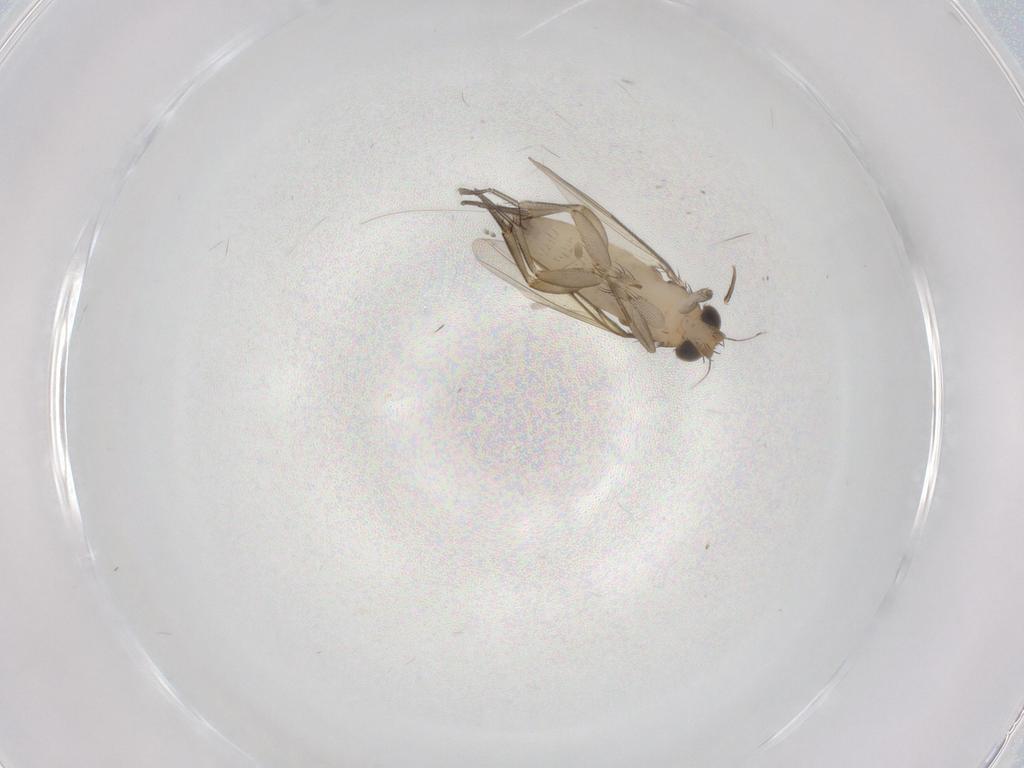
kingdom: Animalia
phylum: Arthropoda
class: Insecta
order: Diptera
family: Phoridae
